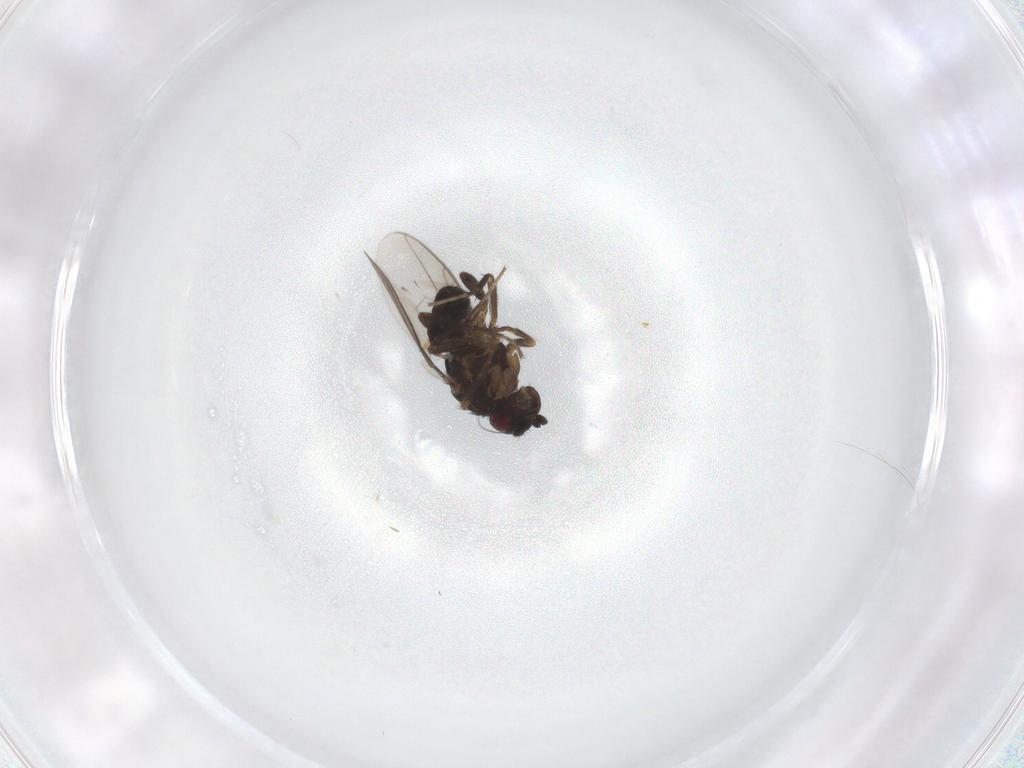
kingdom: Animalia
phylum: Arthropoda
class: Insecta
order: Diptera
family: Sphaeroceridae
